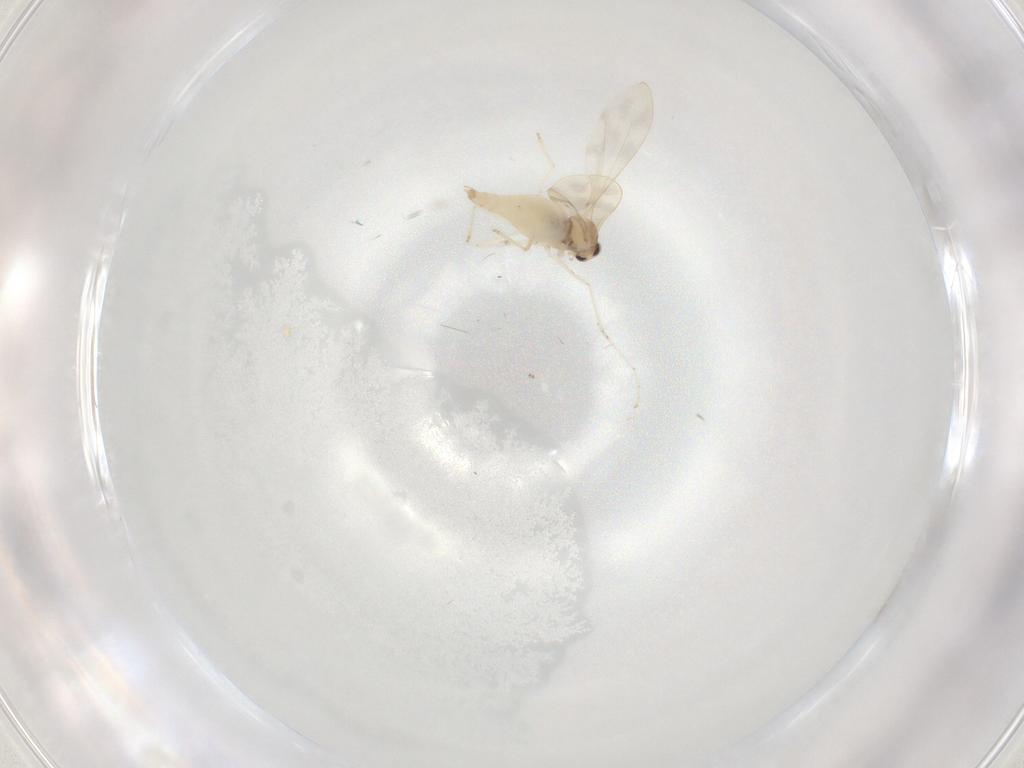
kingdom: Animalia
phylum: Arthropoda
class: Insecta
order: Diptera
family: Cecidomyiidae
